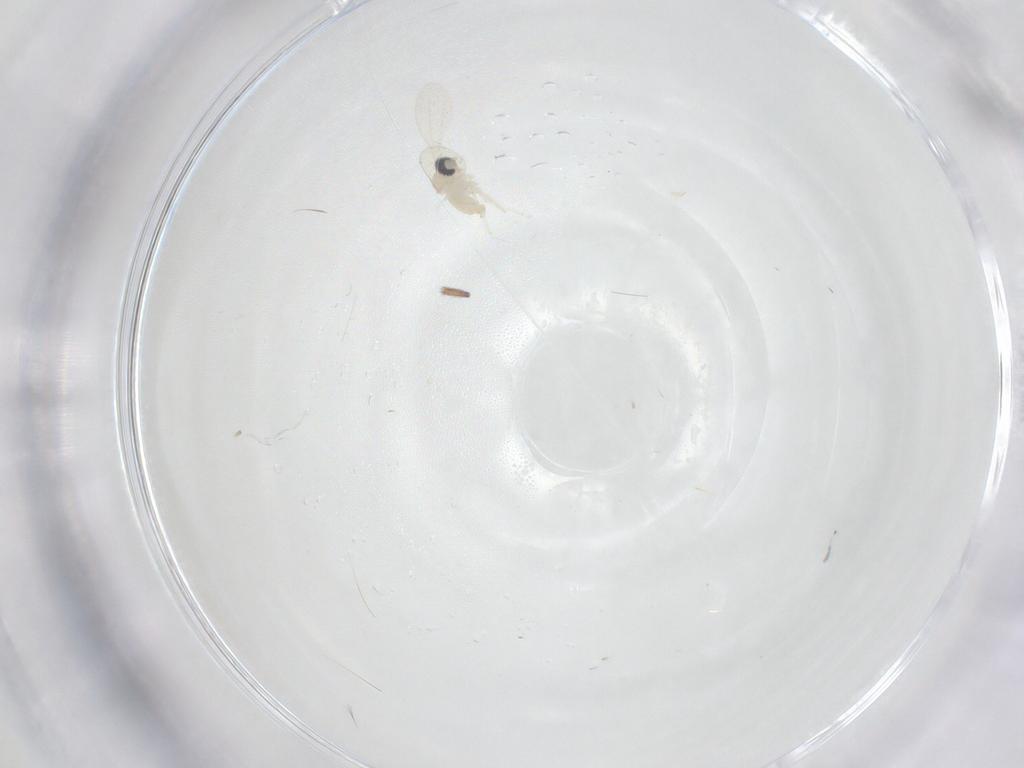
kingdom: Animalia
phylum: Arthropoda
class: Insecta
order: Diptera
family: Cecidomyiidae
